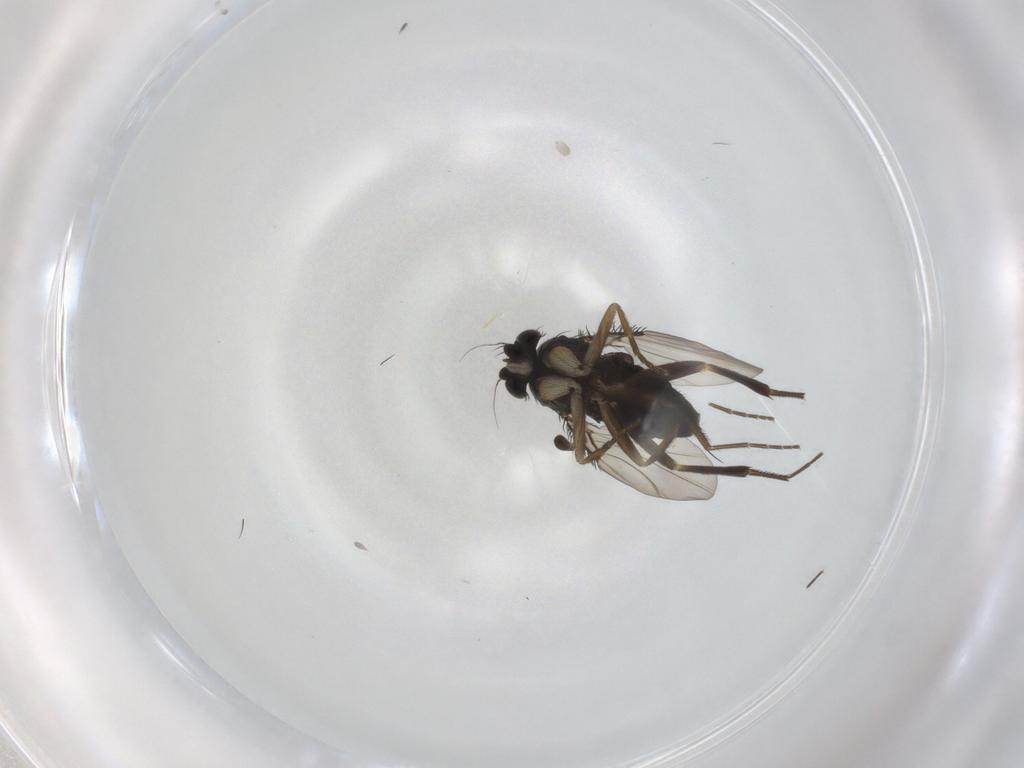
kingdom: Animalia
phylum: Arthropoda
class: Insecta
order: Diptera
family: Phoridae
